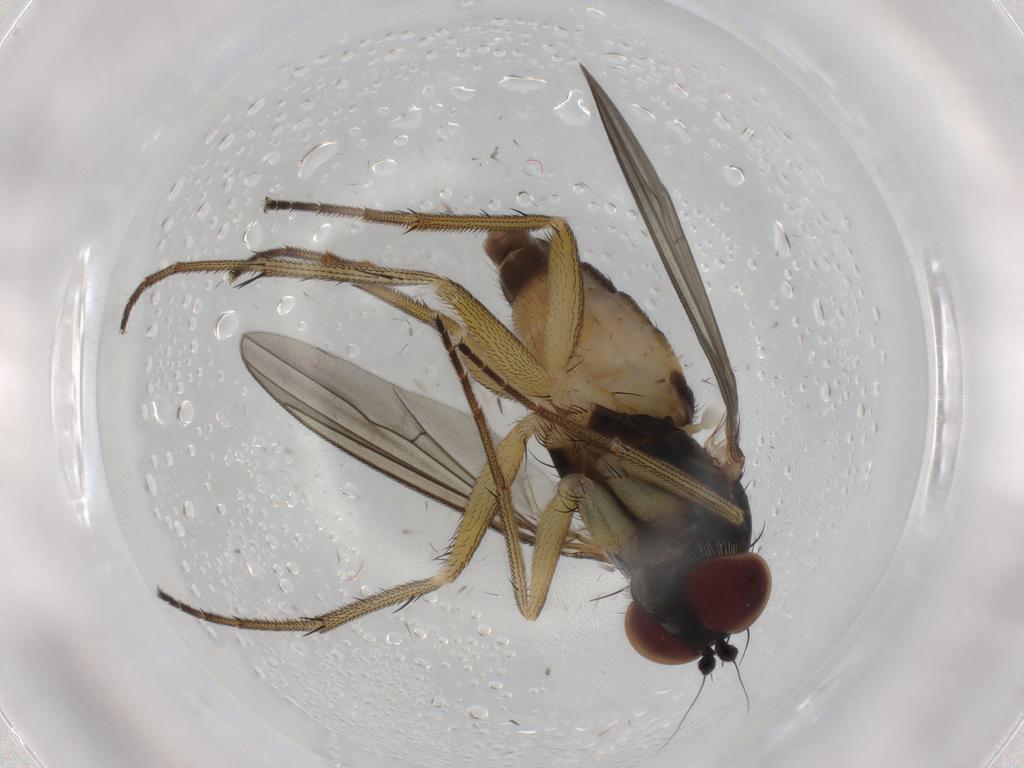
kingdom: Animalia
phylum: Arthropoda
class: Insecta
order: Diptera
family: Dolichopodidae
